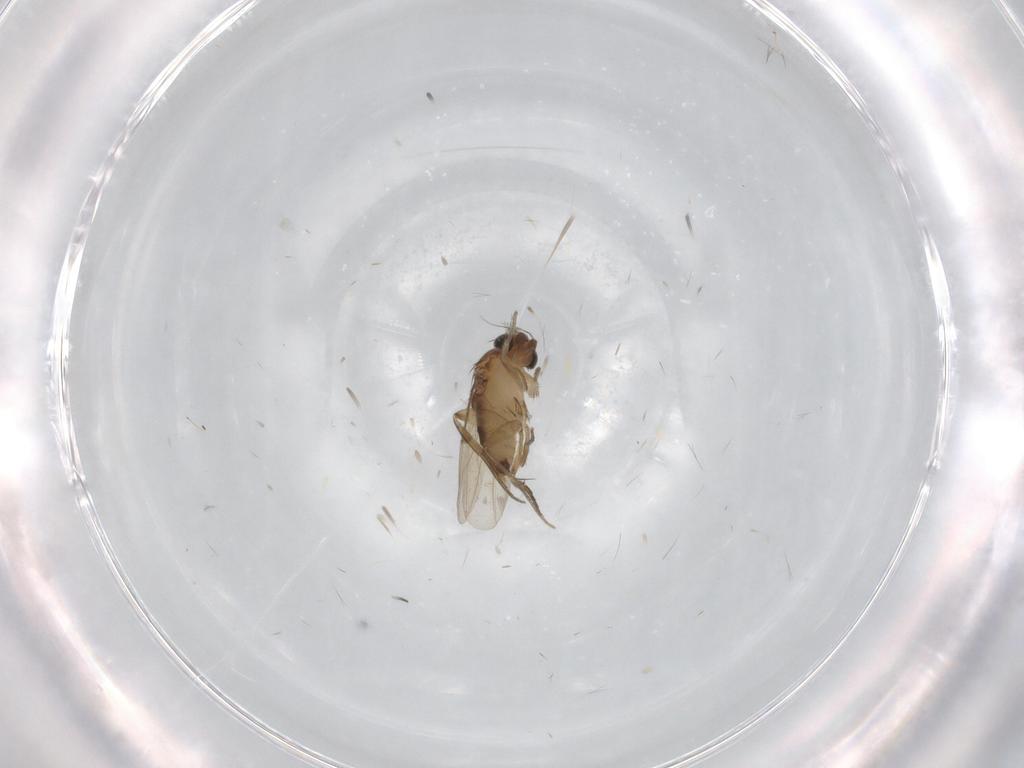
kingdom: Animalia
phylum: Arthropoda
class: Insecta
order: Diptera
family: Phoridae
